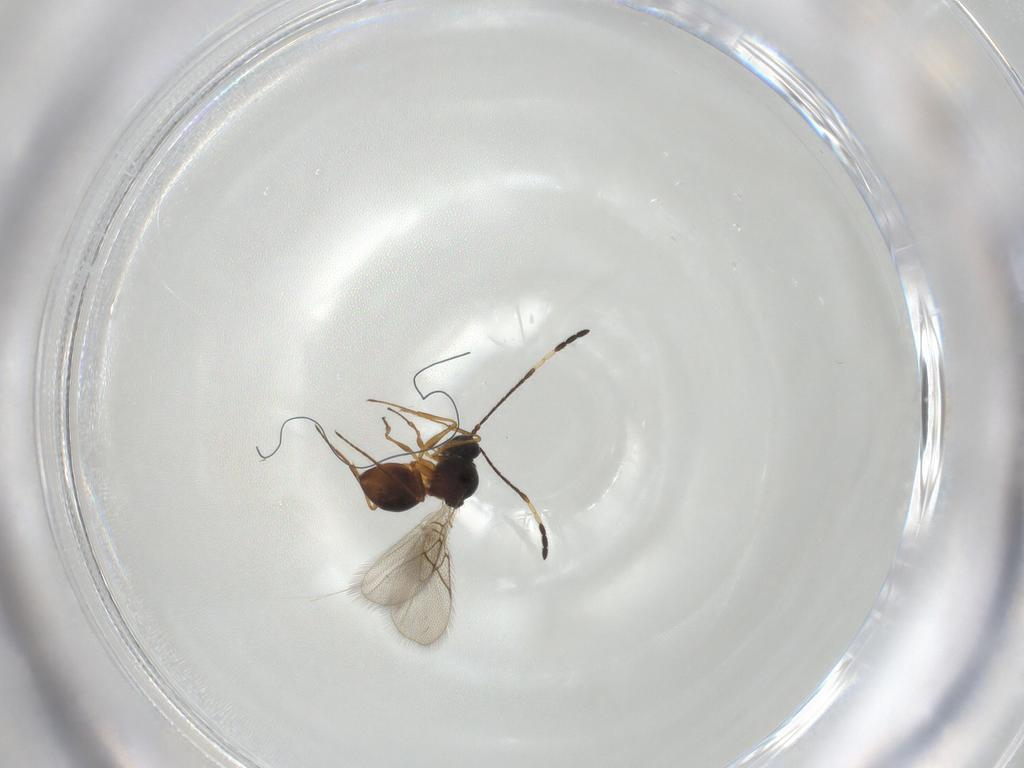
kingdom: Animalia
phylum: Arthropoda
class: Insecta
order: Hymenoptera
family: Figitidae
